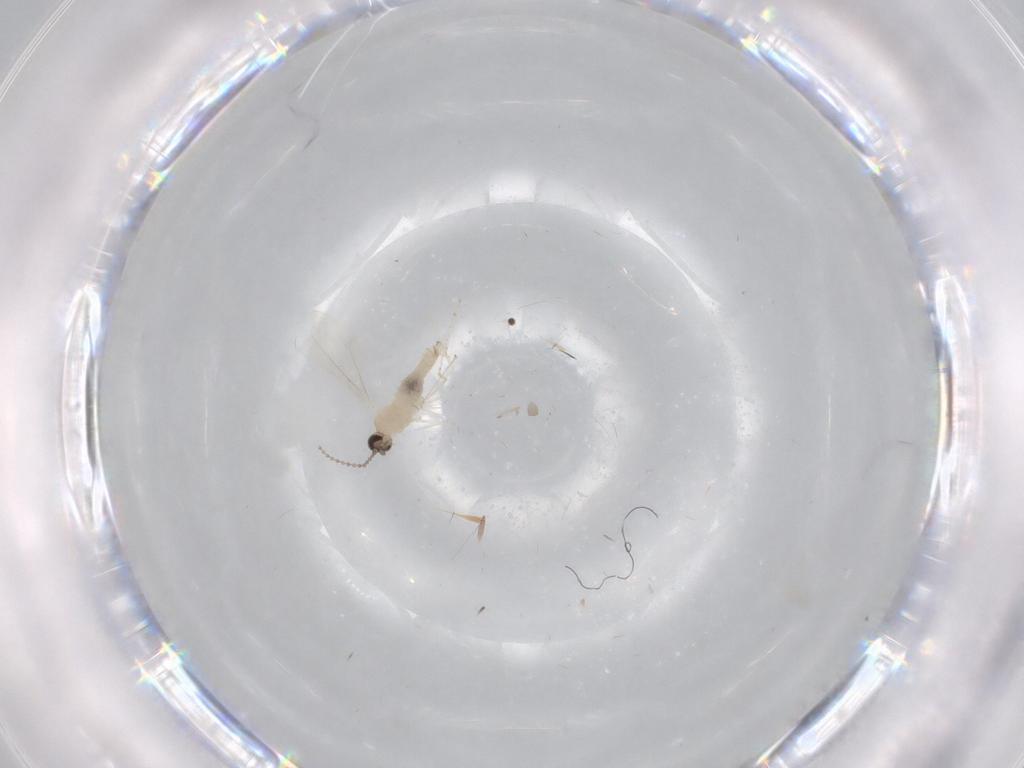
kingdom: Animalia
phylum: Arthropoda
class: Insecta
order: Diptera
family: Cecidomyiidae
